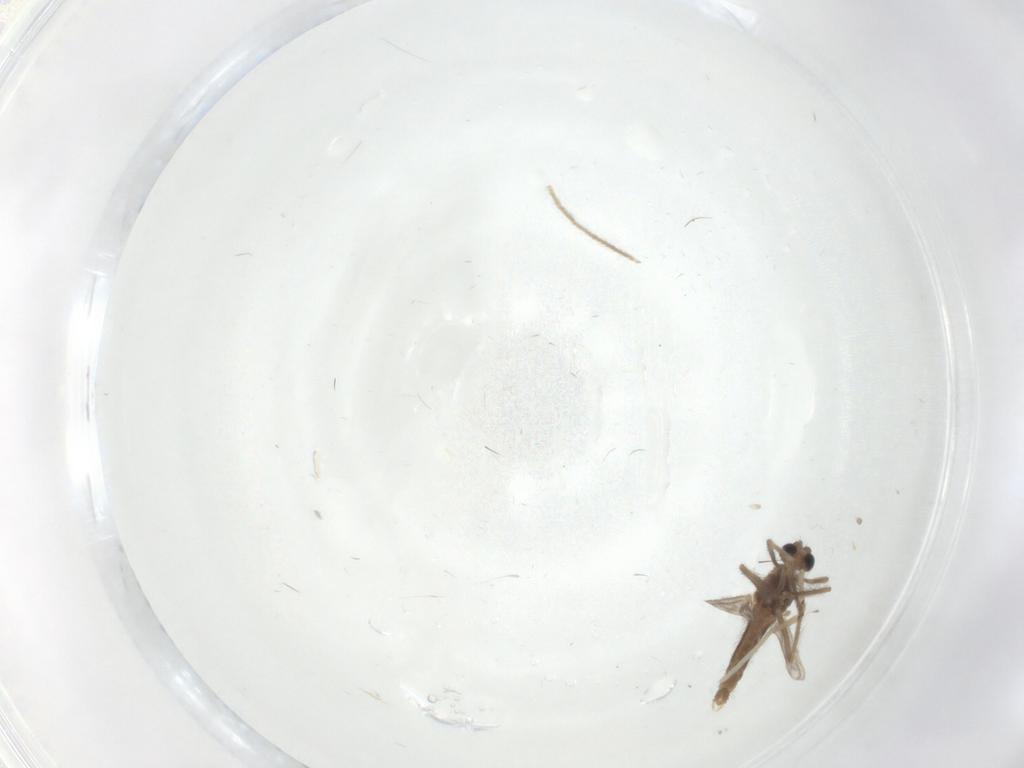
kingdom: Animalia
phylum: Arthropoda
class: Insecta
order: Diptera
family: Chironomidae
